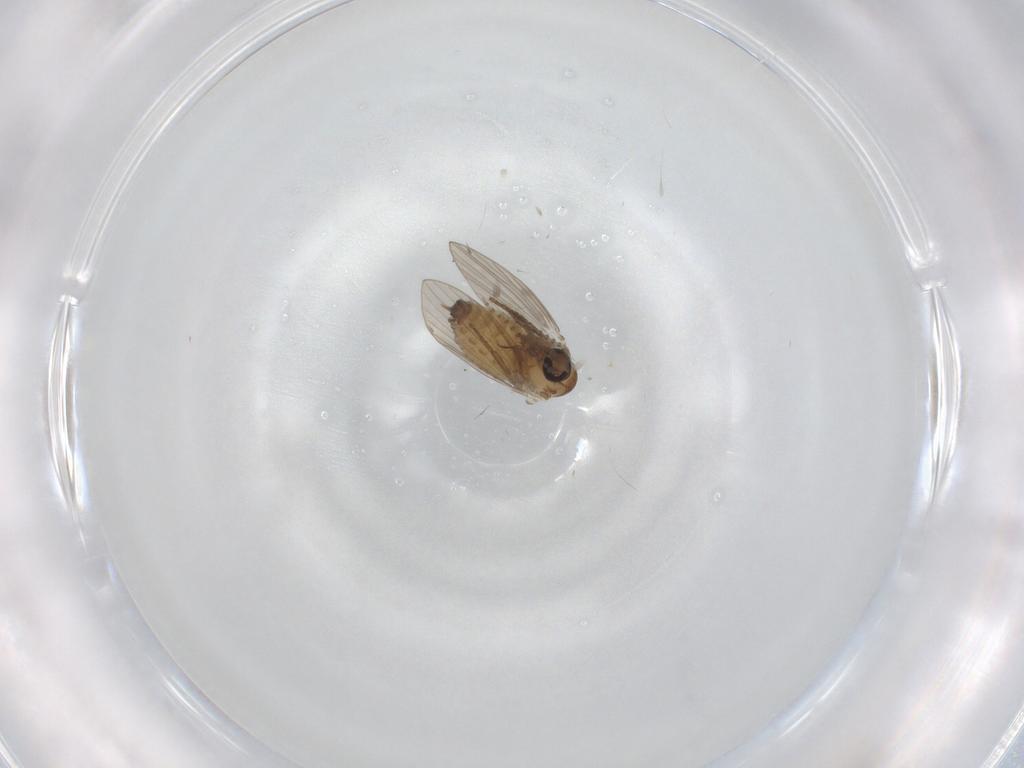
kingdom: Animalia
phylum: Arthropoda
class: Insecta
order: Diptera
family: Psychodidae
